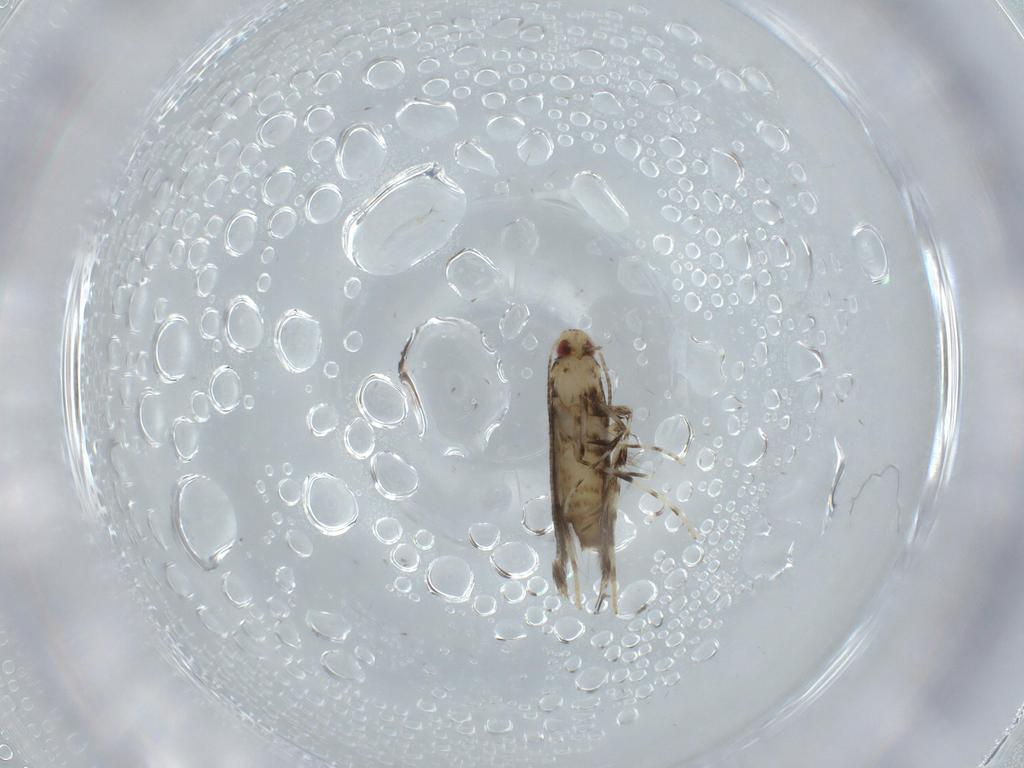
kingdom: Animalia
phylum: Arthropoda
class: Insecta
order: Lepidoptera
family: Gracillariidae
